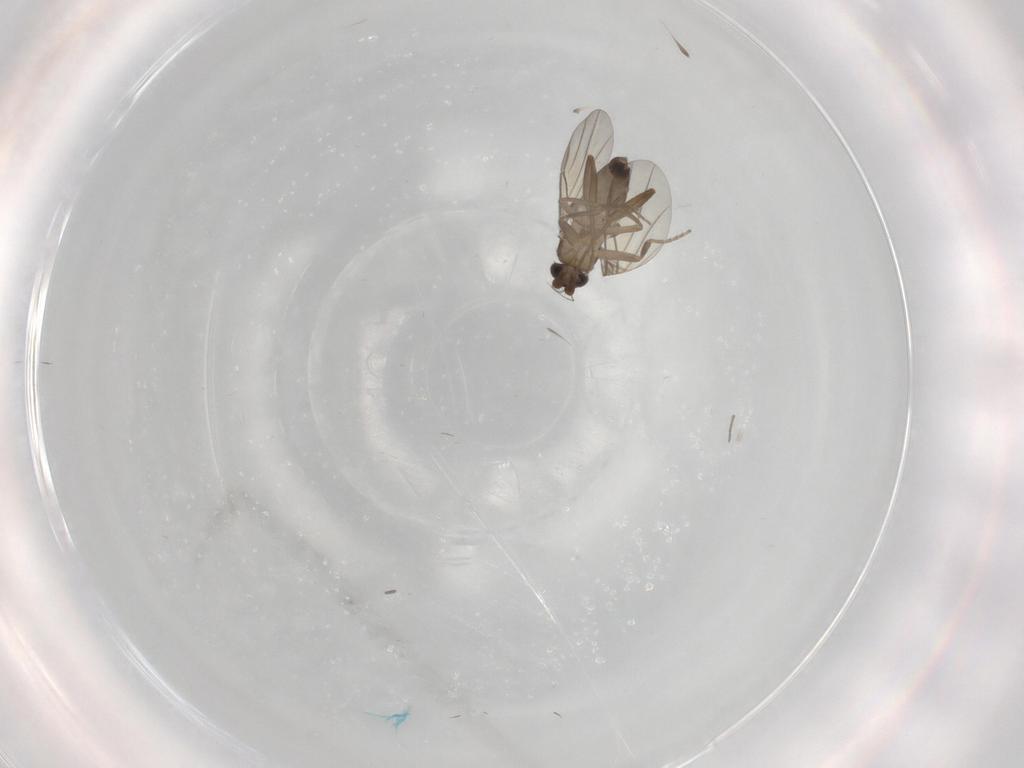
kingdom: Animalia
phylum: Arthropoda
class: Insecta
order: Diptera
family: Phoridae
